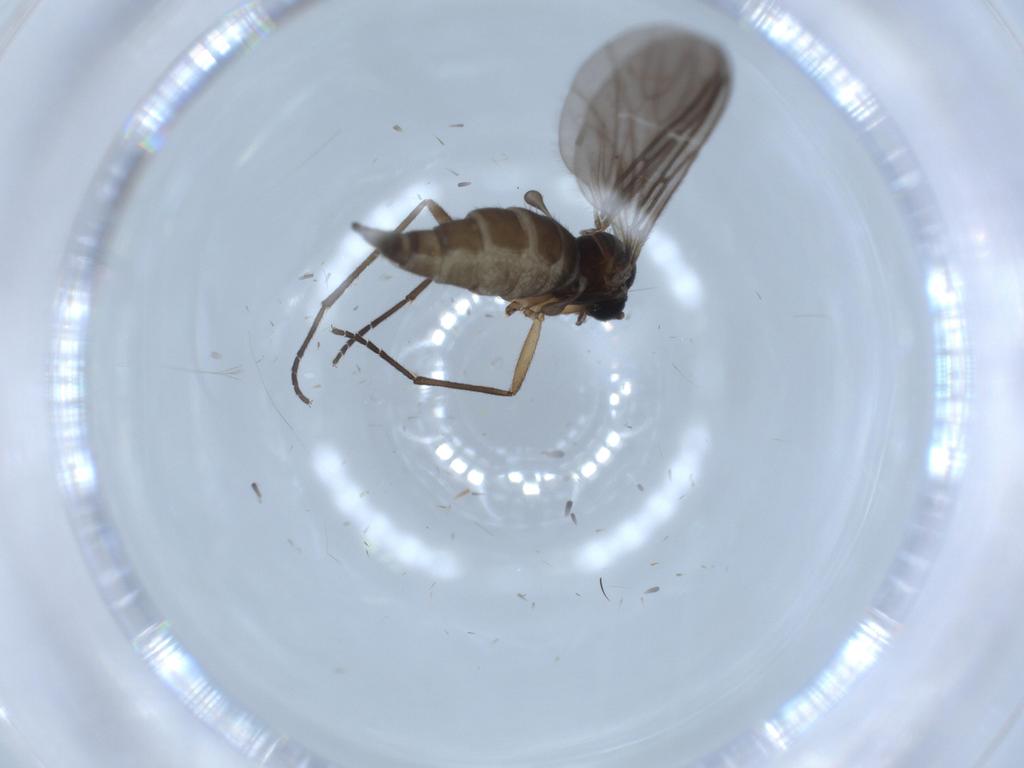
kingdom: Animalia
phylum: Arthropoda
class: Insecta
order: Diptera
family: Sciaridae
